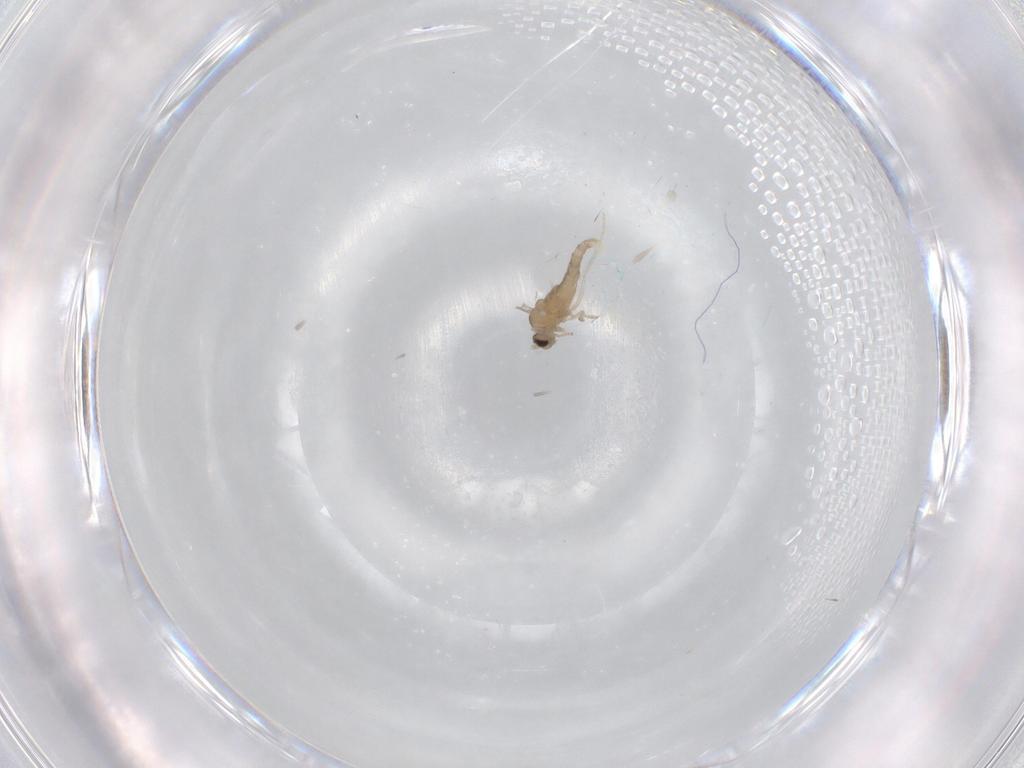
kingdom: Animalia
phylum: Arthropoda
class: Insecta
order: Diptera
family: Cecidomyiidae
